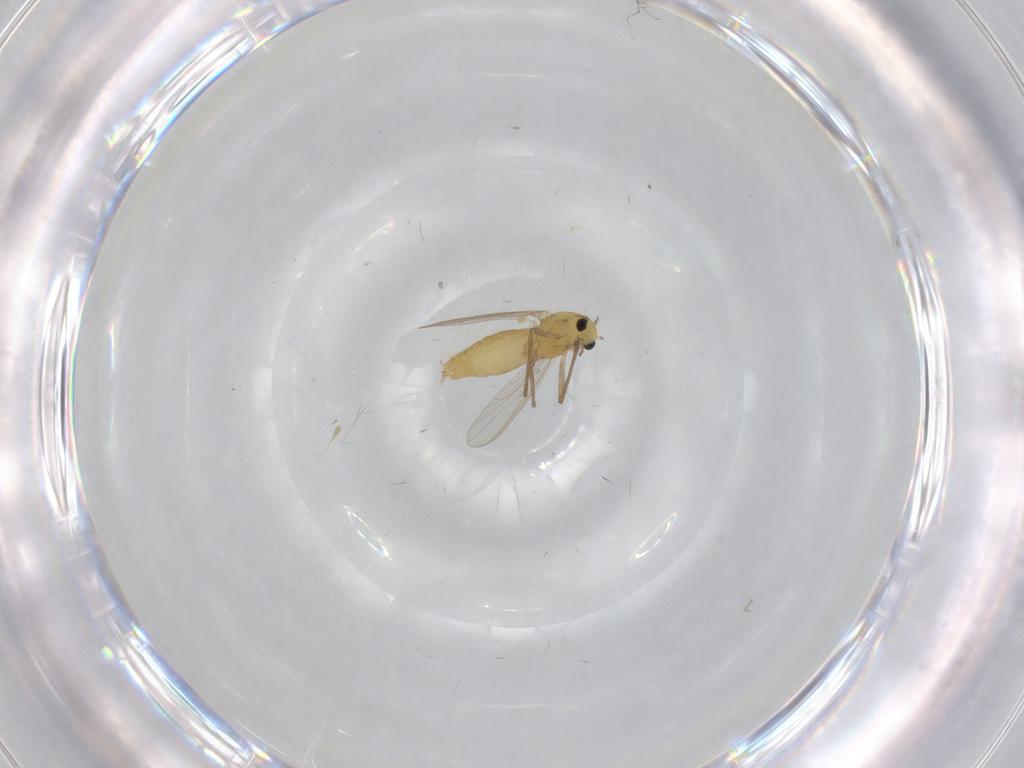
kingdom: Animalia
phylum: Arthropoda
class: Insecta
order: Diptera
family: Chironomidae
